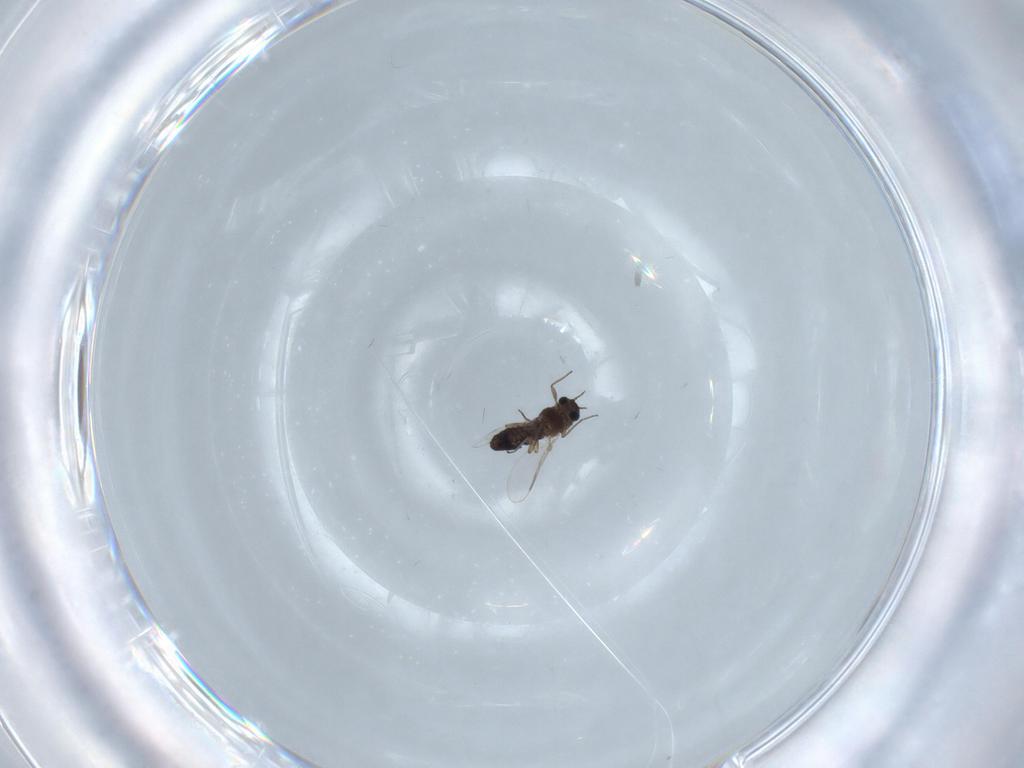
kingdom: Animalia
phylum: Arthropoda
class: Insecta
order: Diptera
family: Chironomidae
